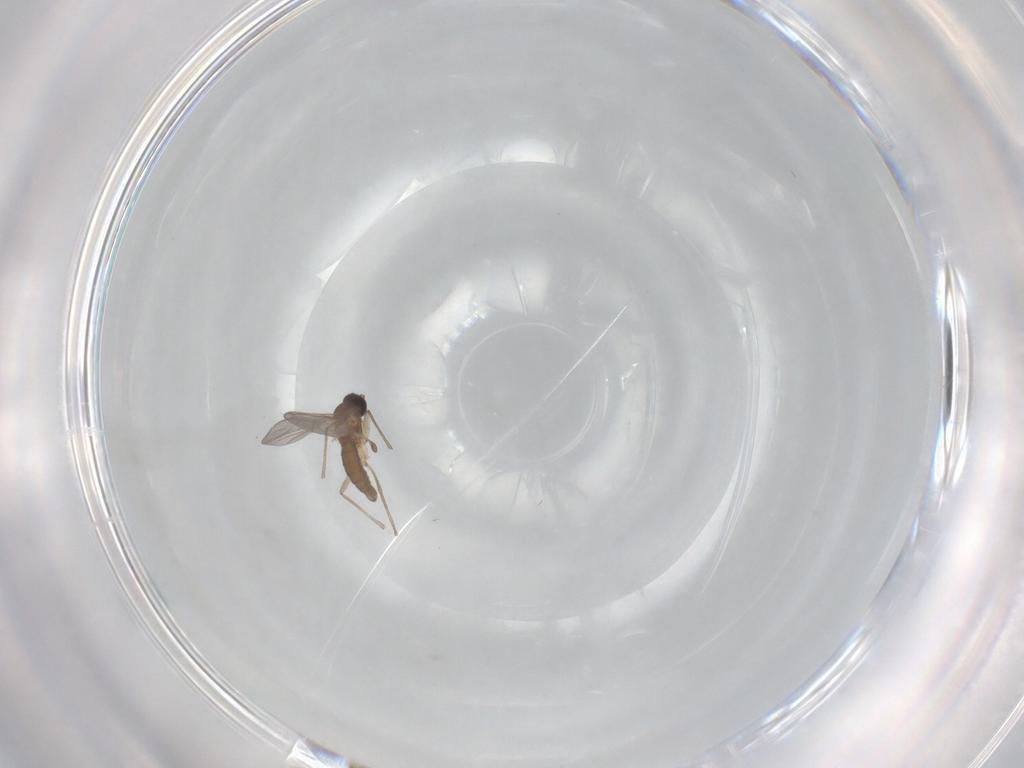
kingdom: Animalia
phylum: Arthropoda
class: Insecta
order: Diptera
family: Sciaridae
